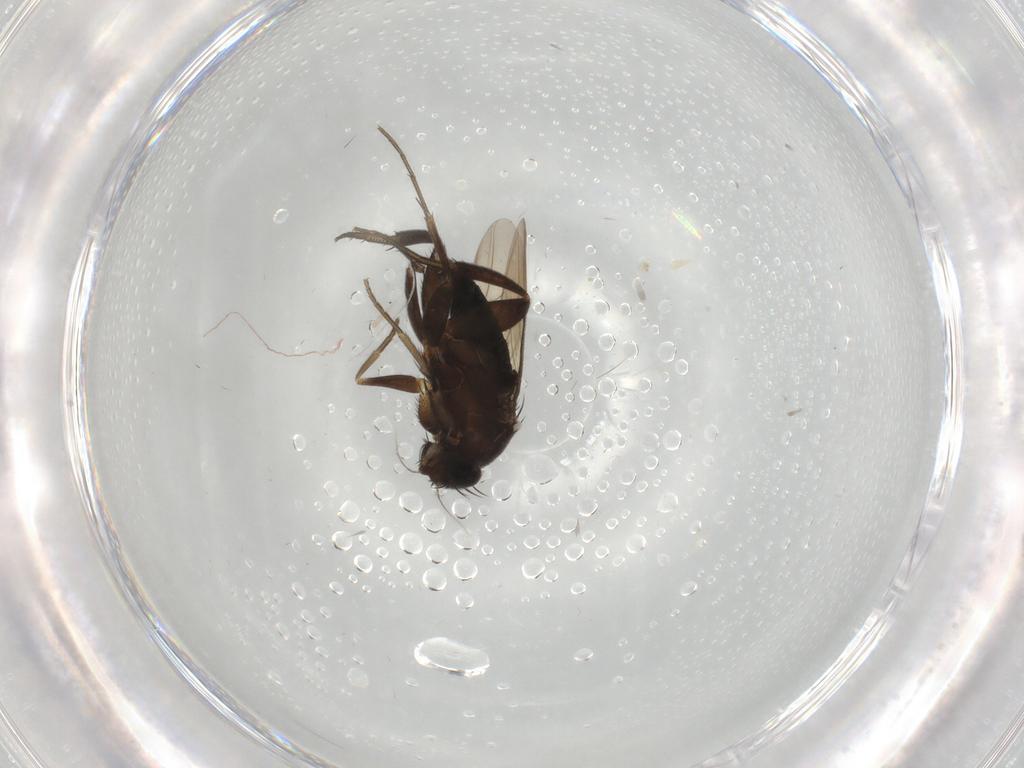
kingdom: Animalia
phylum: Arthropoda
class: Insecta
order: Diptera
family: Phoridae
